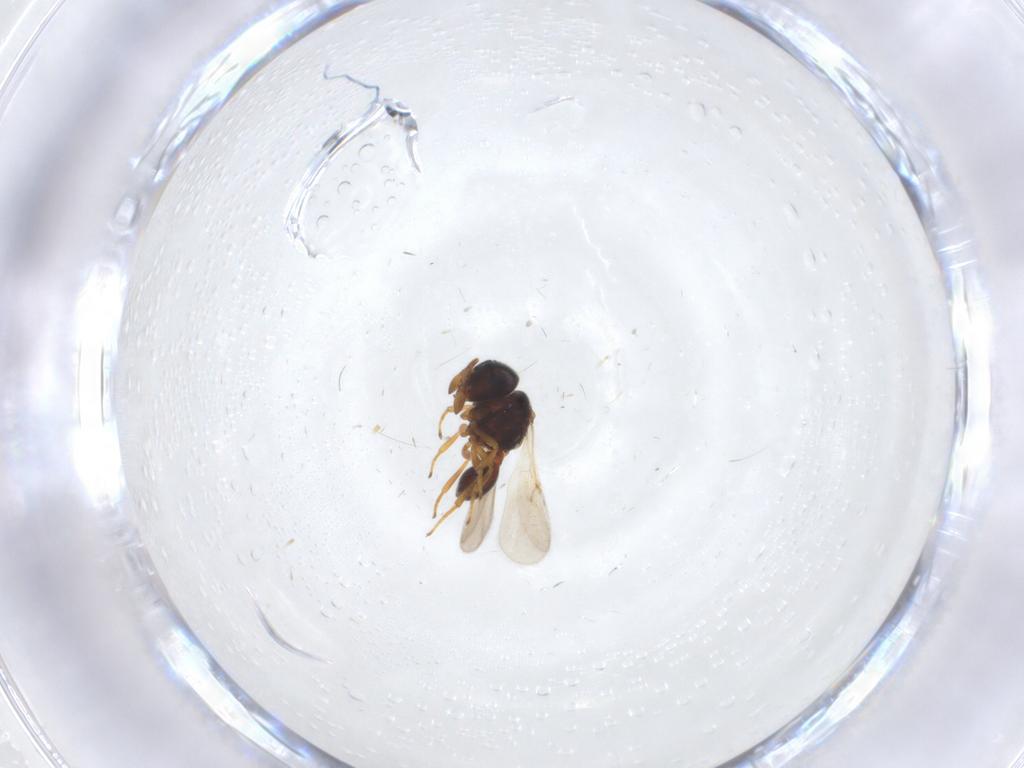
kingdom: Animalia
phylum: Arthropoda
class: Insecta
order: Hymenoptera
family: Scelionidae
